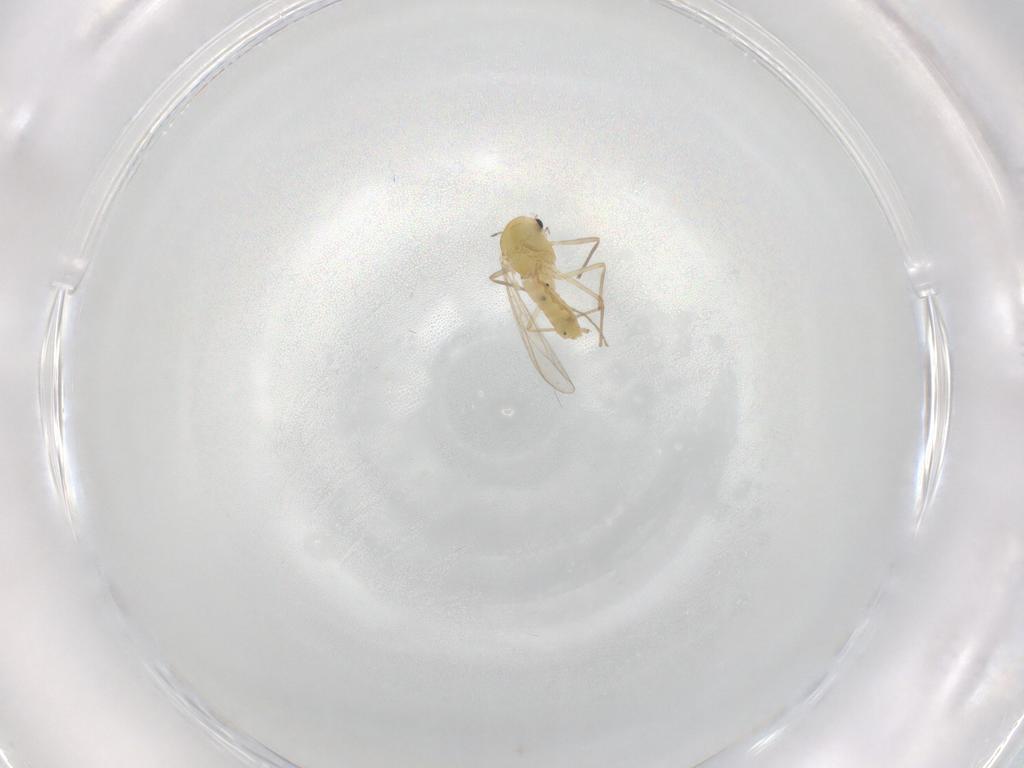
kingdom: Animalia
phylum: Arthropoda
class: Insecta
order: Diptera
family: Chironomidae
